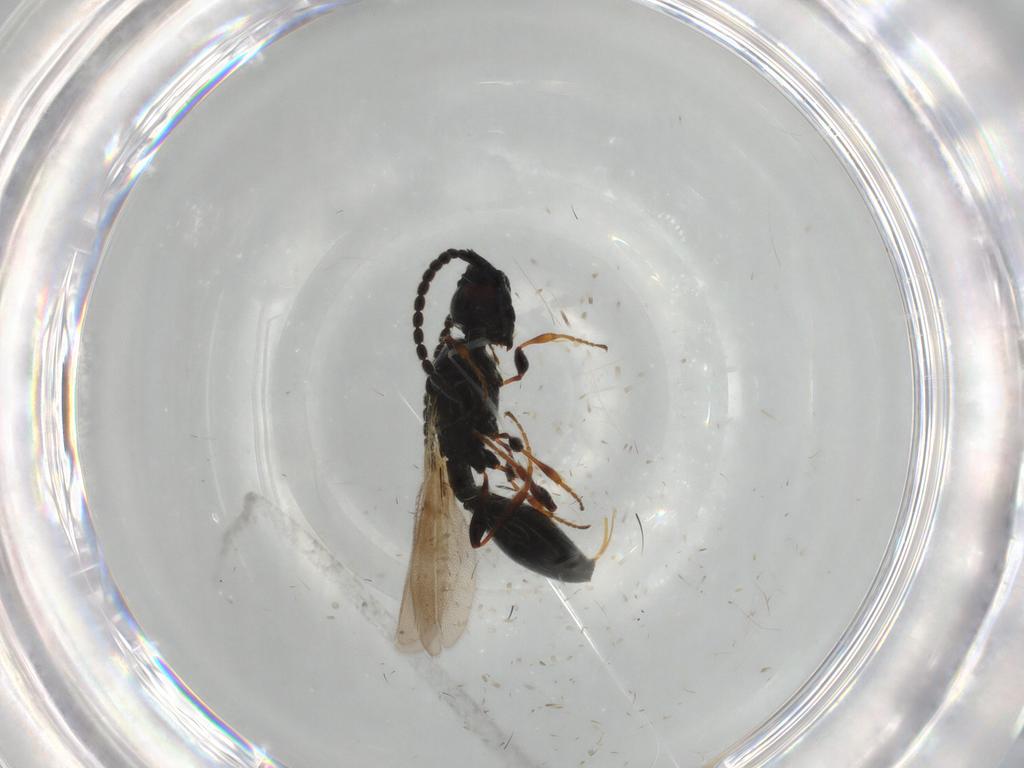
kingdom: Animalia
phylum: Arthropoda
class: Insecta
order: Hymenoptera
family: Formicidae
